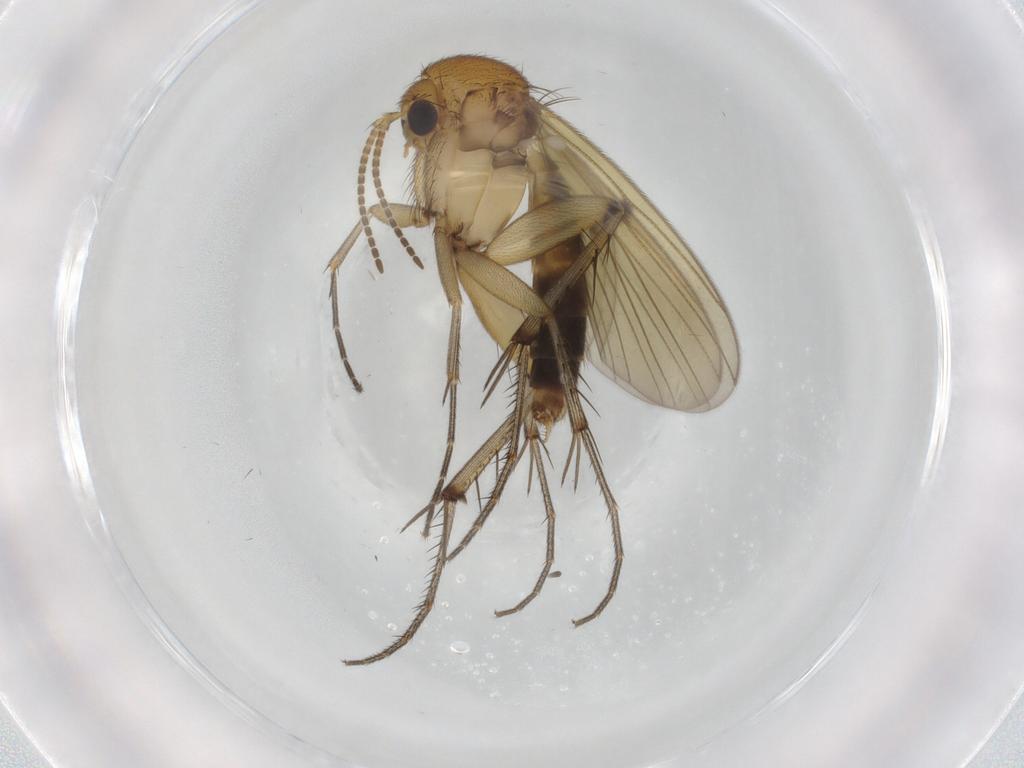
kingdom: Animalia
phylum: Arthropoda
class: Insecta
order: Diptera
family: Mycetophilidae
